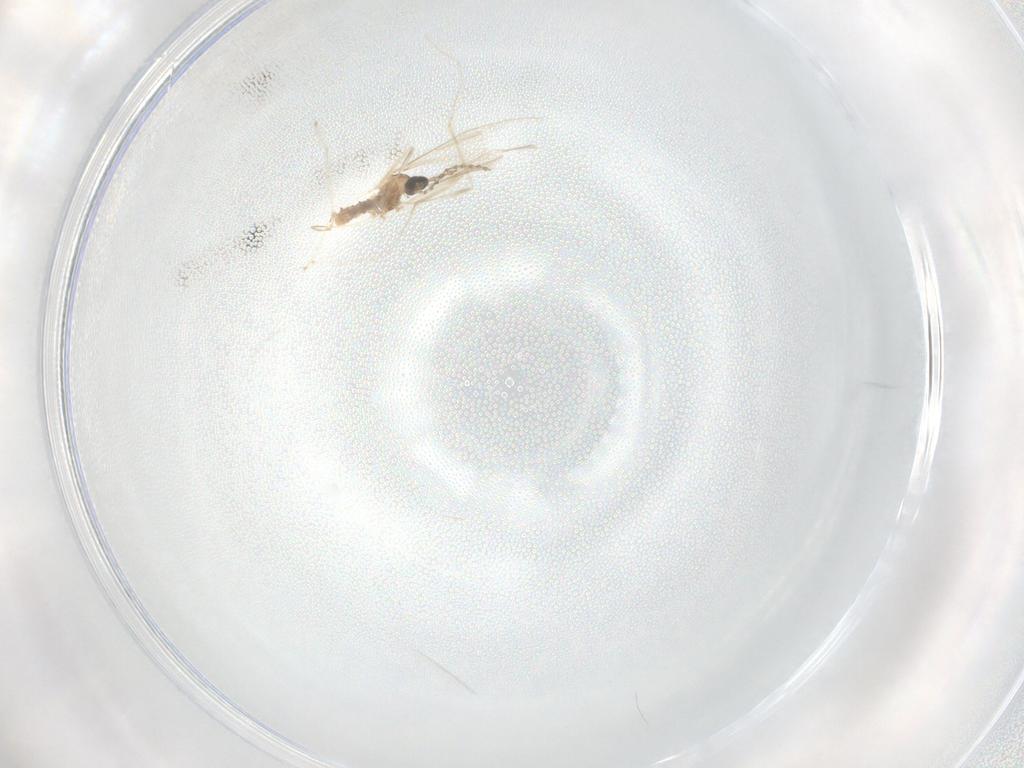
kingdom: Animalia
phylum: Arthropoda
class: Insecta
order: Diptera
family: Cecidomyiidae
